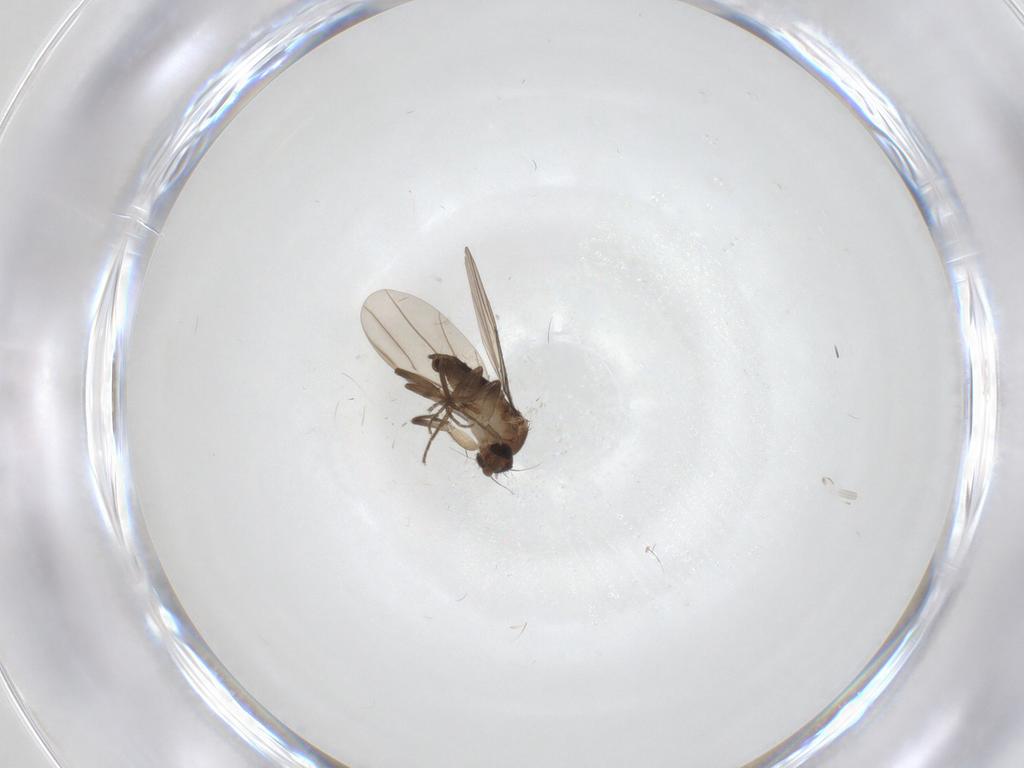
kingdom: Animalia
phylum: Arthropoda
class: Insecta
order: Diptera
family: Phoridae
